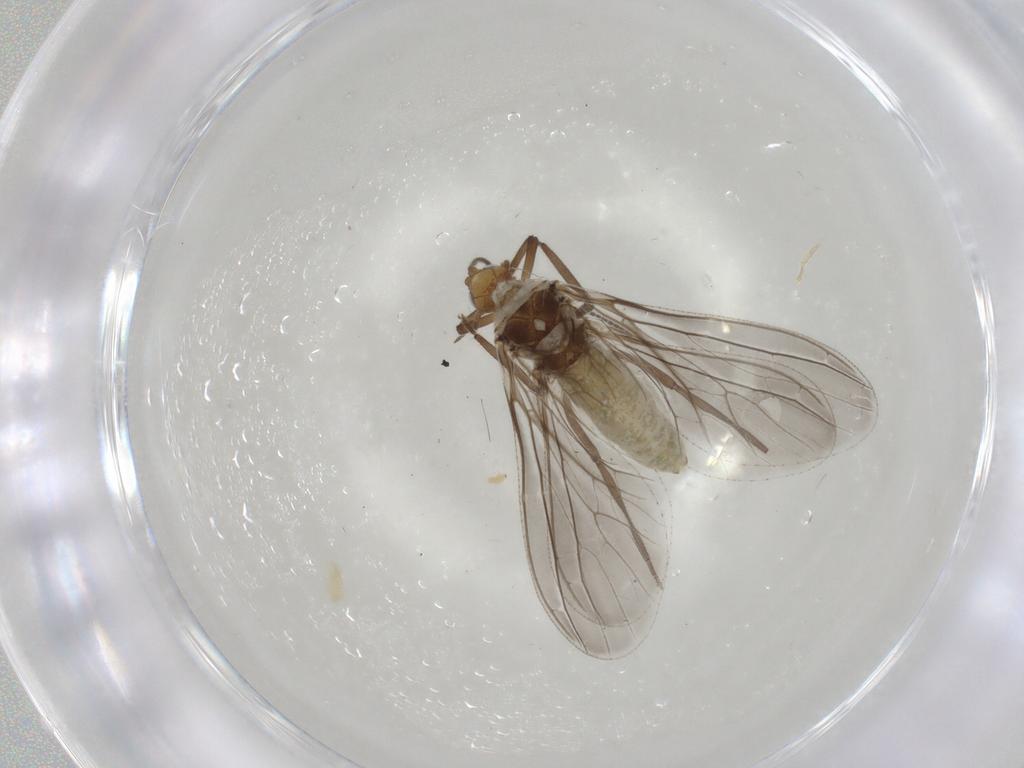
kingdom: Animalia
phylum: Arthropoda
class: Insecta
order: Neuroptera
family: Coniopterygidae
